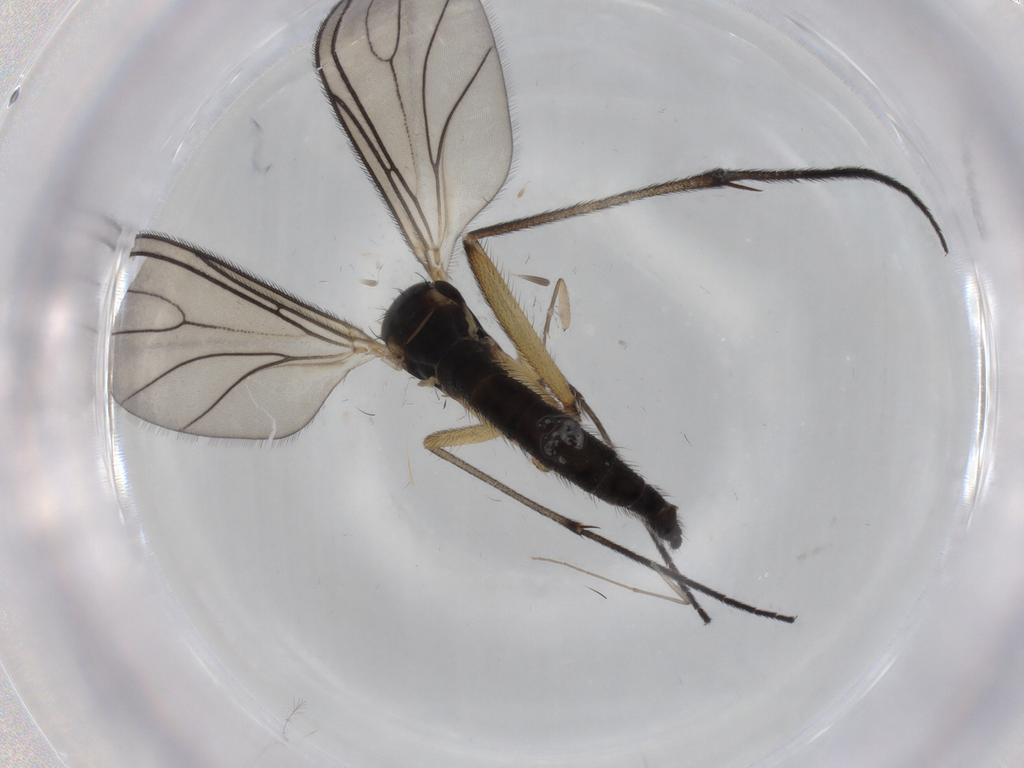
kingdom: Animalia
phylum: Arthropoda
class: Insecta
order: Diptera
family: Sciaridae
